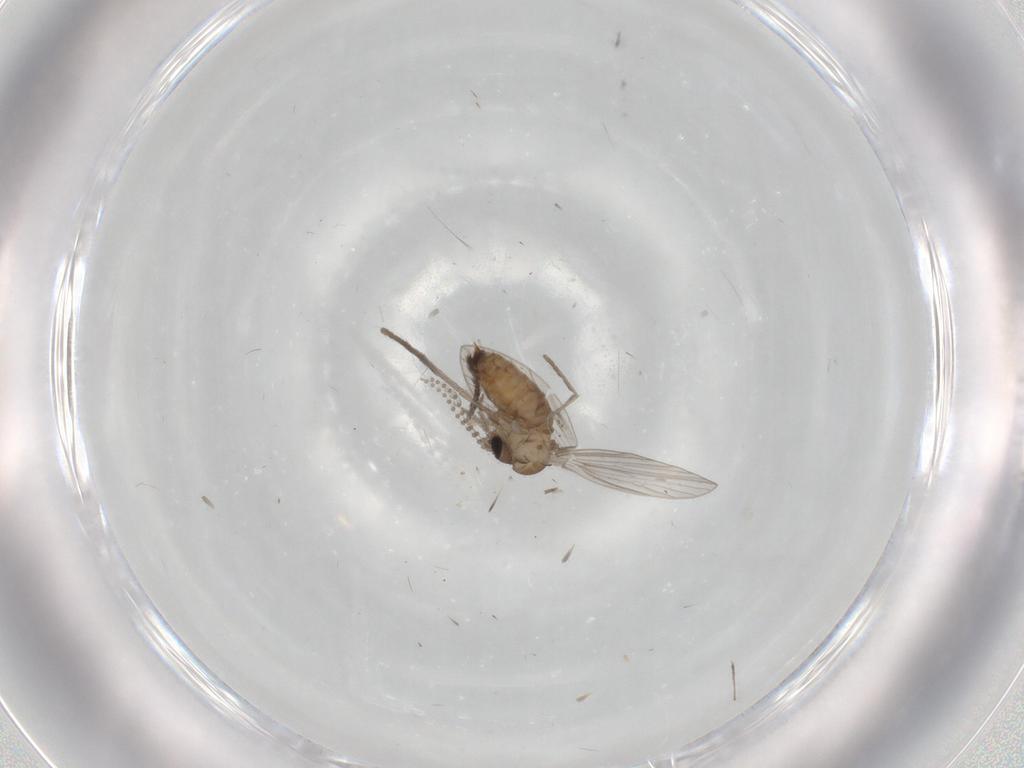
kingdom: Animalia
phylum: Arthropoda
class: Insecta
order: Diptera
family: Psychodidae
